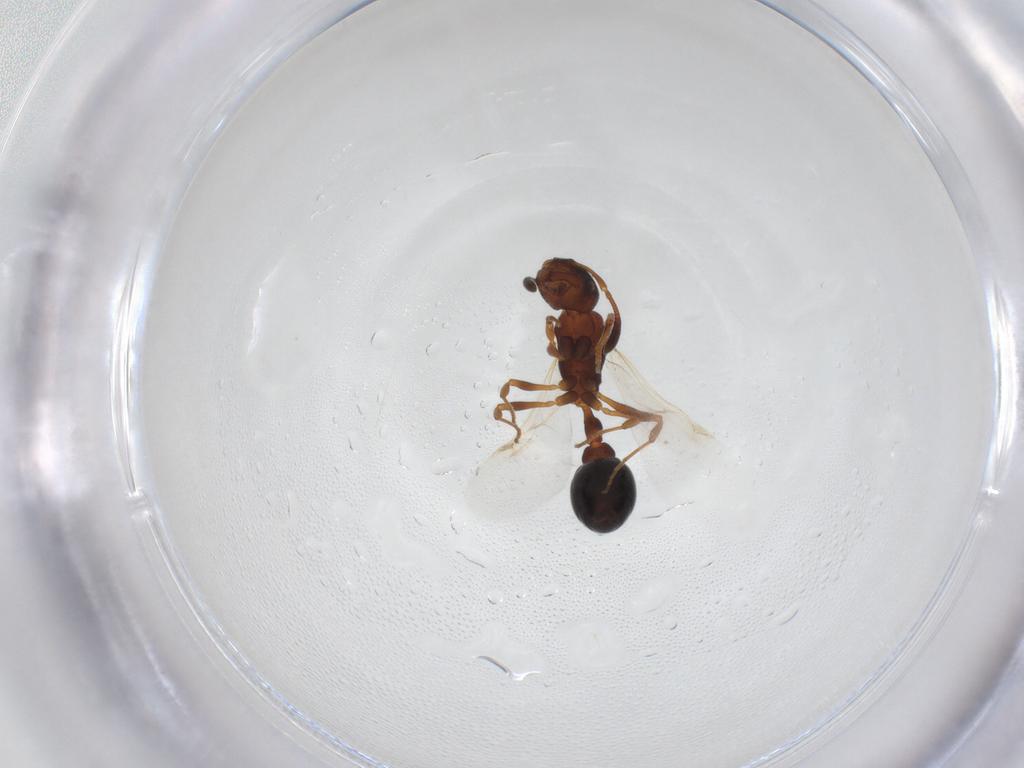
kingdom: Animalia
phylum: Arthropoda
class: Insecta
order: Hymenoptera
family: Formicidae
